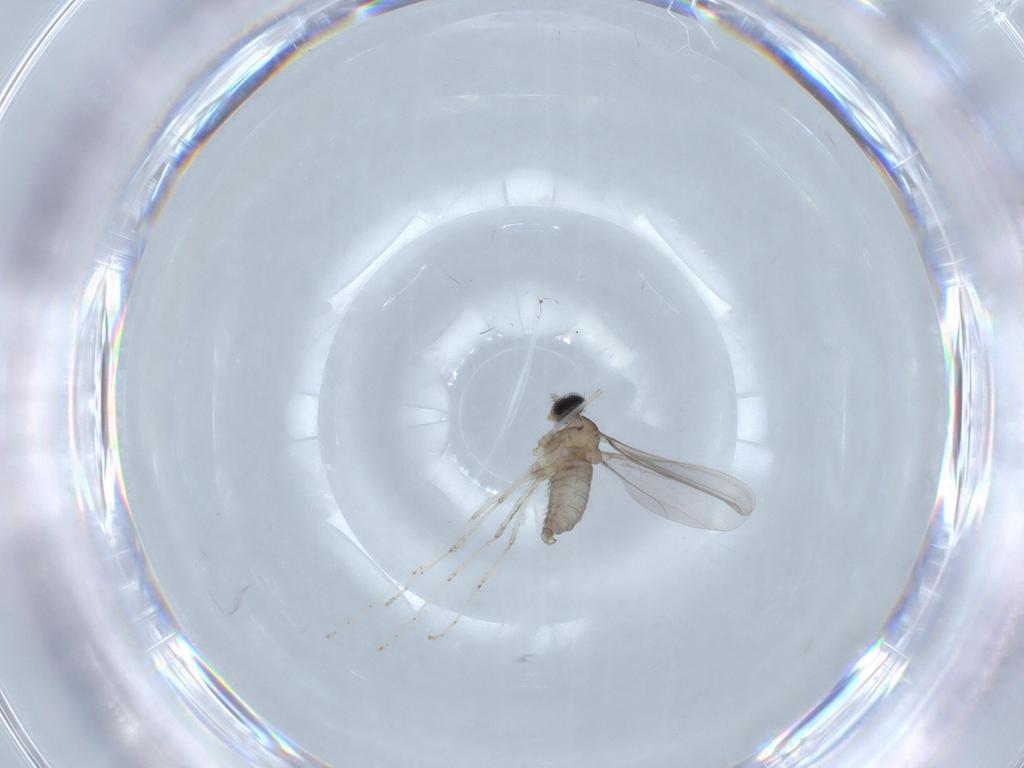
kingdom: Animalia
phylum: Arthropoda
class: Insecta
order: Diptera
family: Cecidomyiidae
